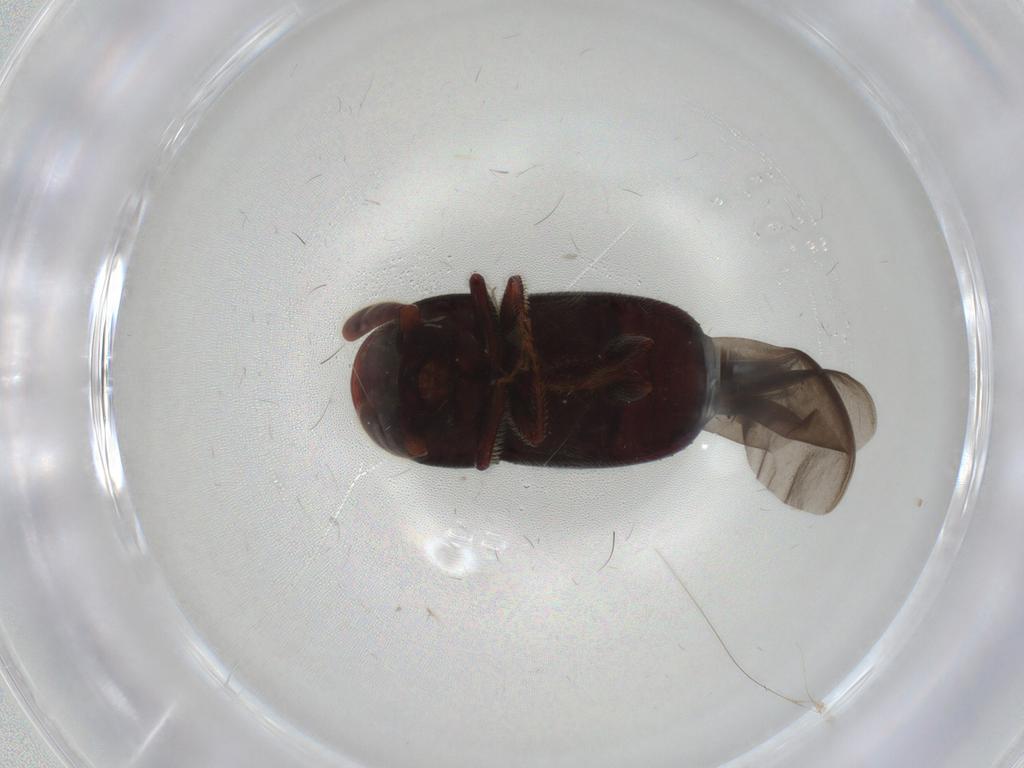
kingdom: Animalia
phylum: Arthropoda
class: Insecta
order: Coleoptera
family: Curculionidae
